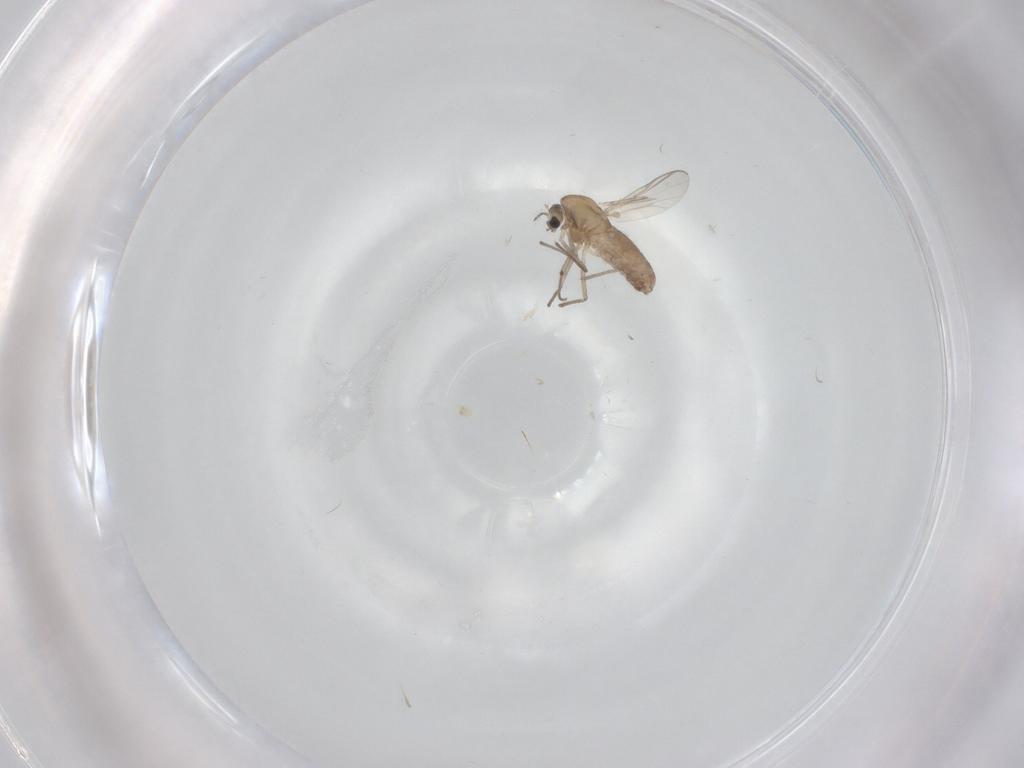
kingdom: Animalia
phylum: Arthropoda
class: Insecta
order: Diptera
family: Chironomidae
